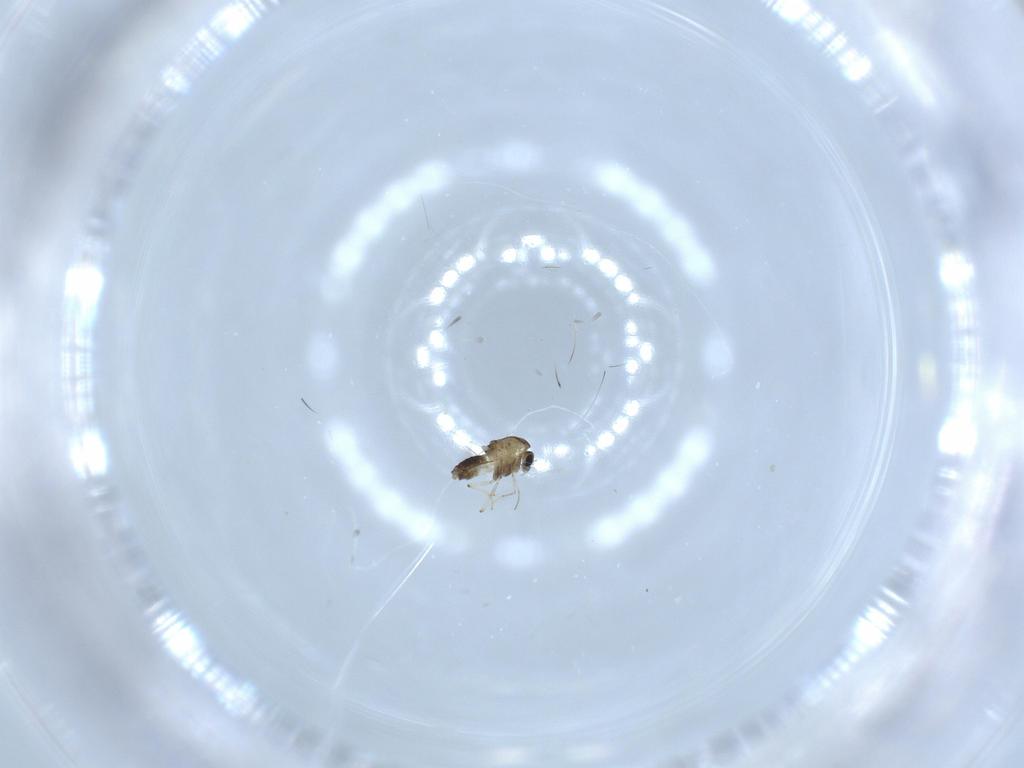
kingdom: Animalia
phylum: Arthropoda
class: Insecta
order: Diptera
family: Chironomidae
